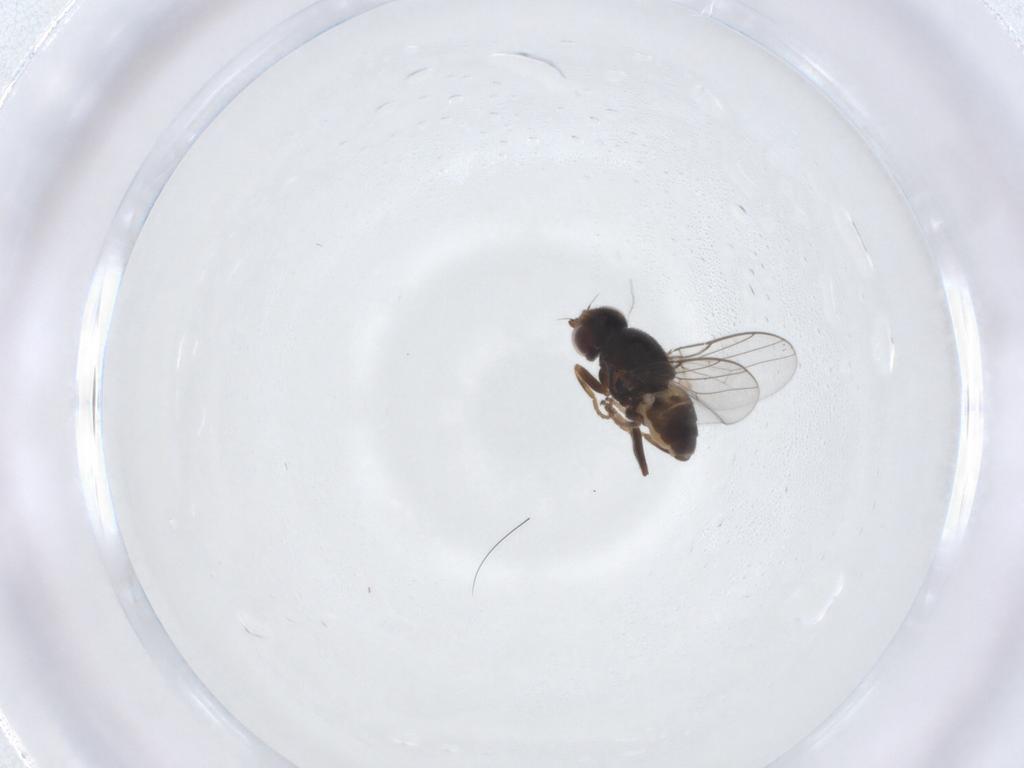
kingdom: Animalia
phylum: Arthropoda
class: Insecta
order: Diptera
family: Chloropidae
